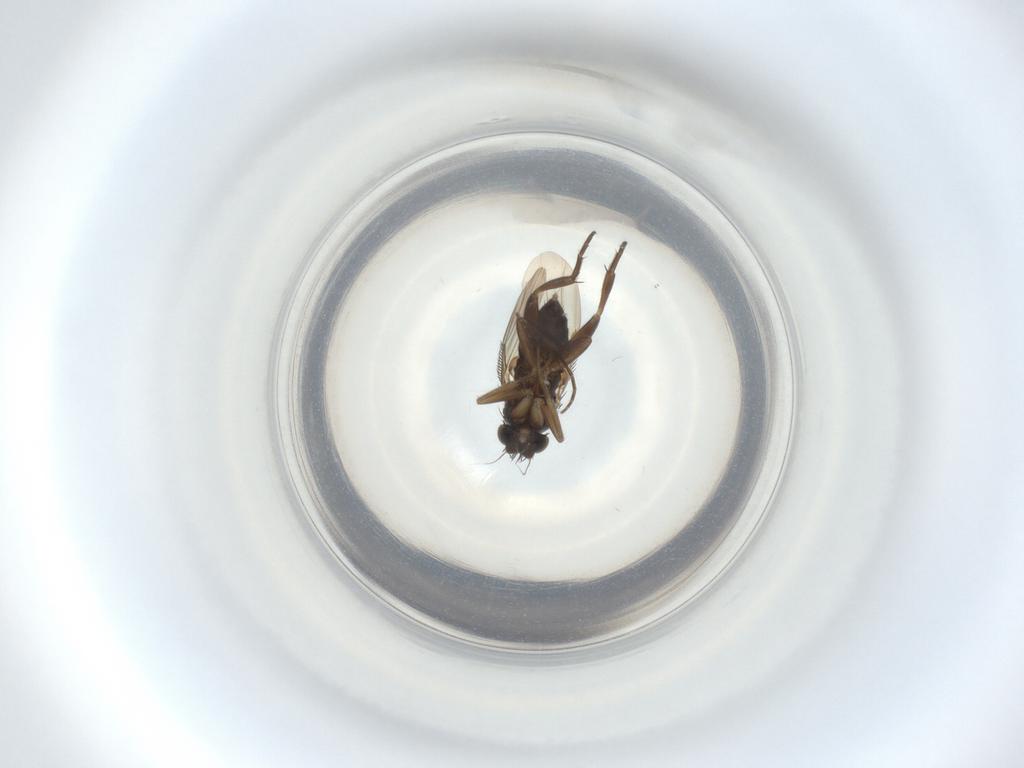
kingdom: Animalia
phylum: Arthropoda
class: Insecta
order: Diptera
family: Phoridae
